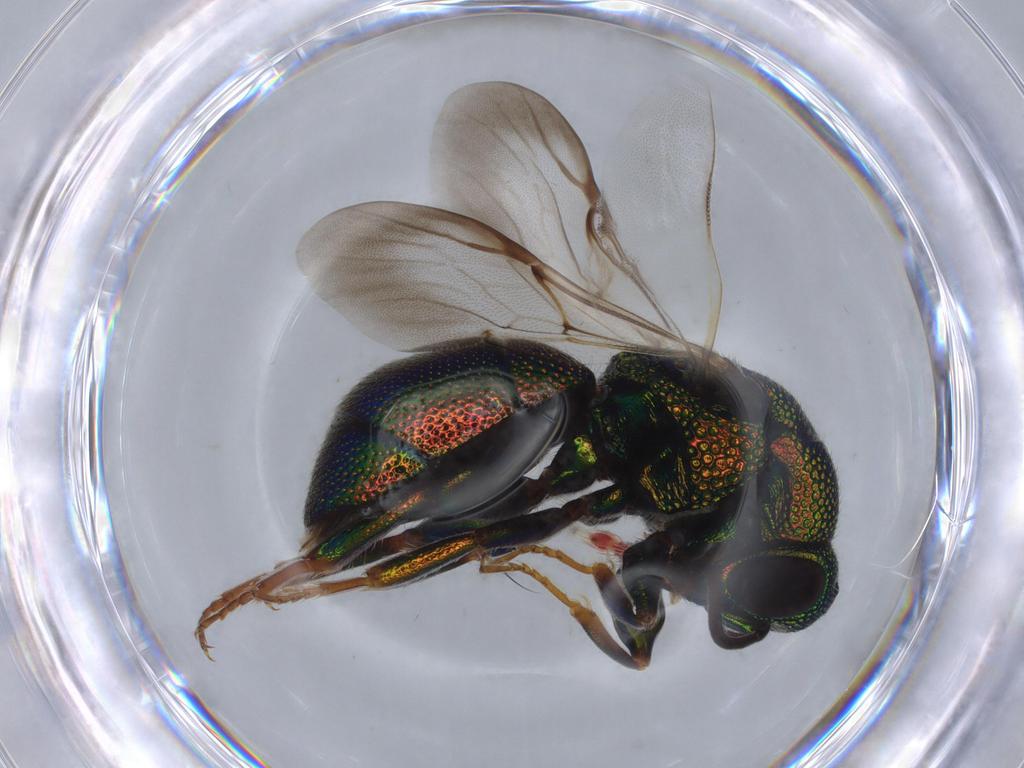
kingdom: Animalia
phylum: Arthropoda
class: Insecta
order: Hymenoptera
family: Chrysididae
